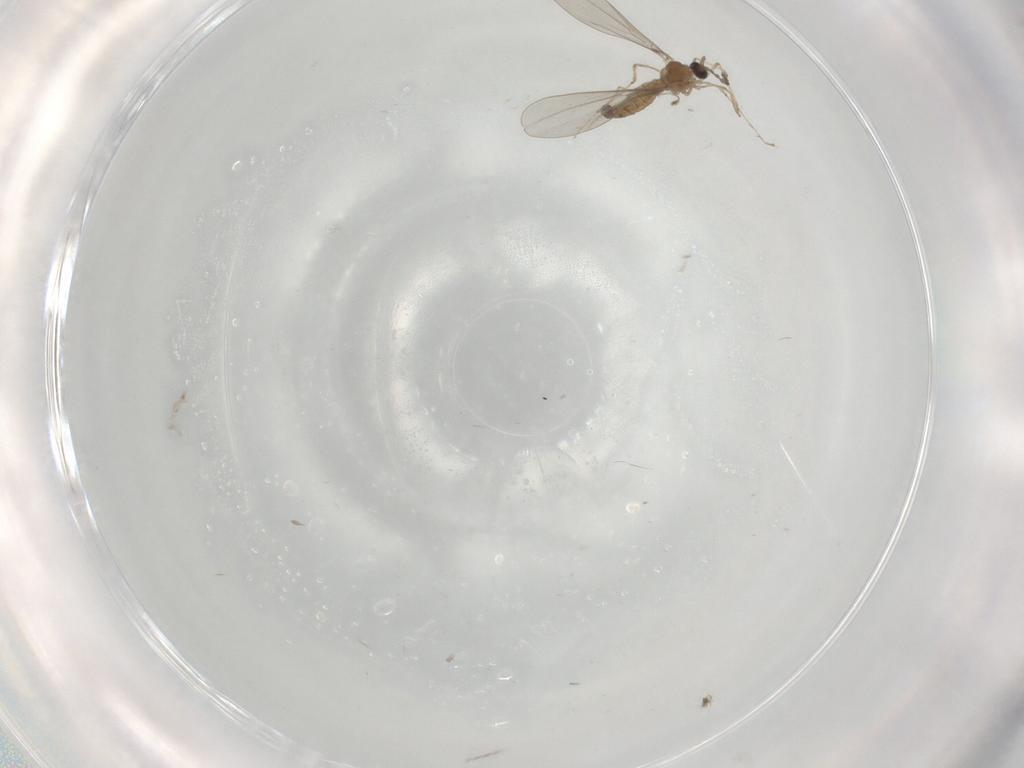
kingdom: Animalia
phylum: Arthropoda
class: Insecta
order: Diptera
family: Cecidomyiidae
